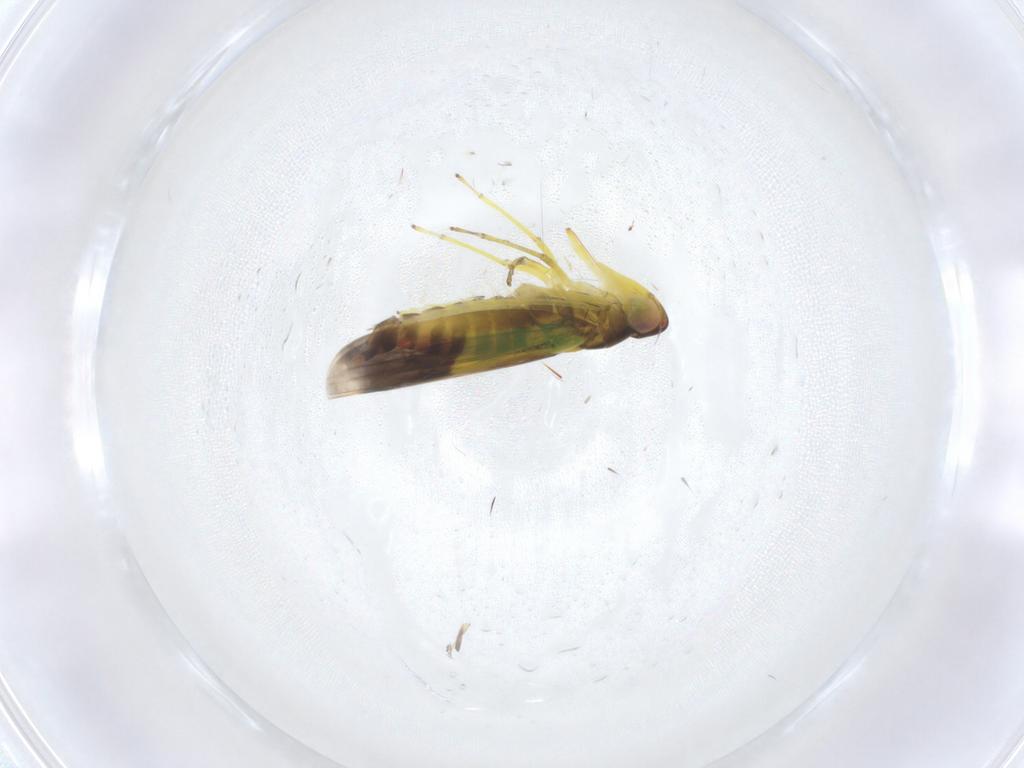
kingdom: Animalia
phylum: Arthropoda
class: Insecta
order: Hemiptera
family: Cicadellidae
